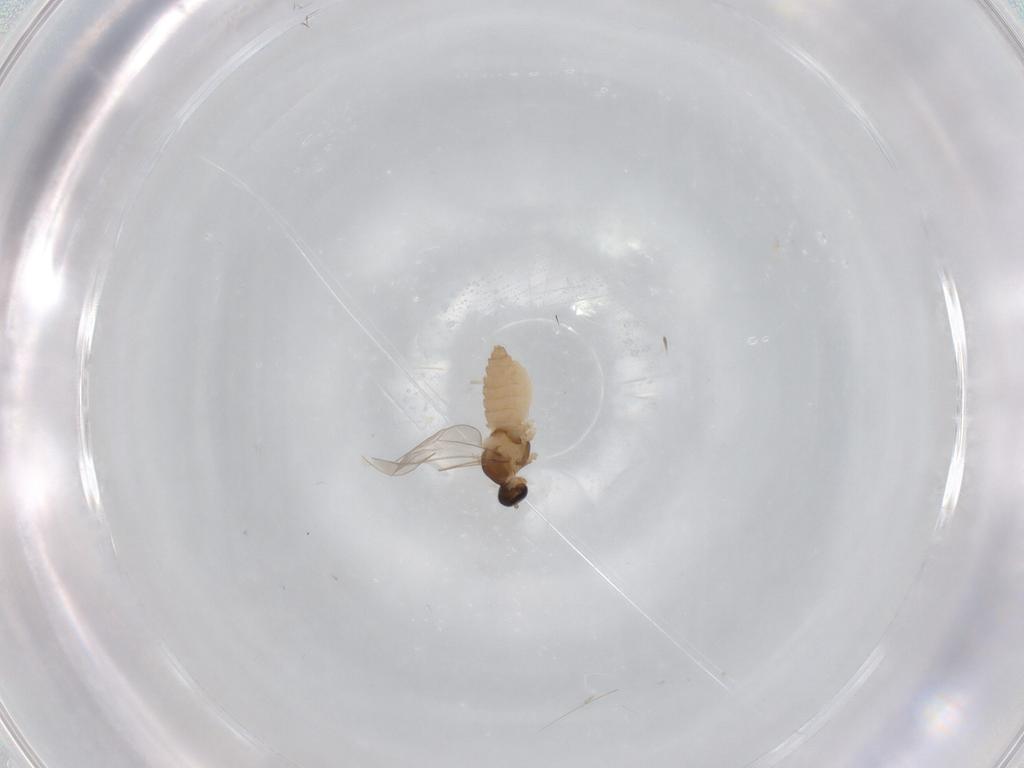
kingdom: Animalia
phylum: Arthropoda
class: Insecta
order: Diptera
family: Cecidomyiidae
